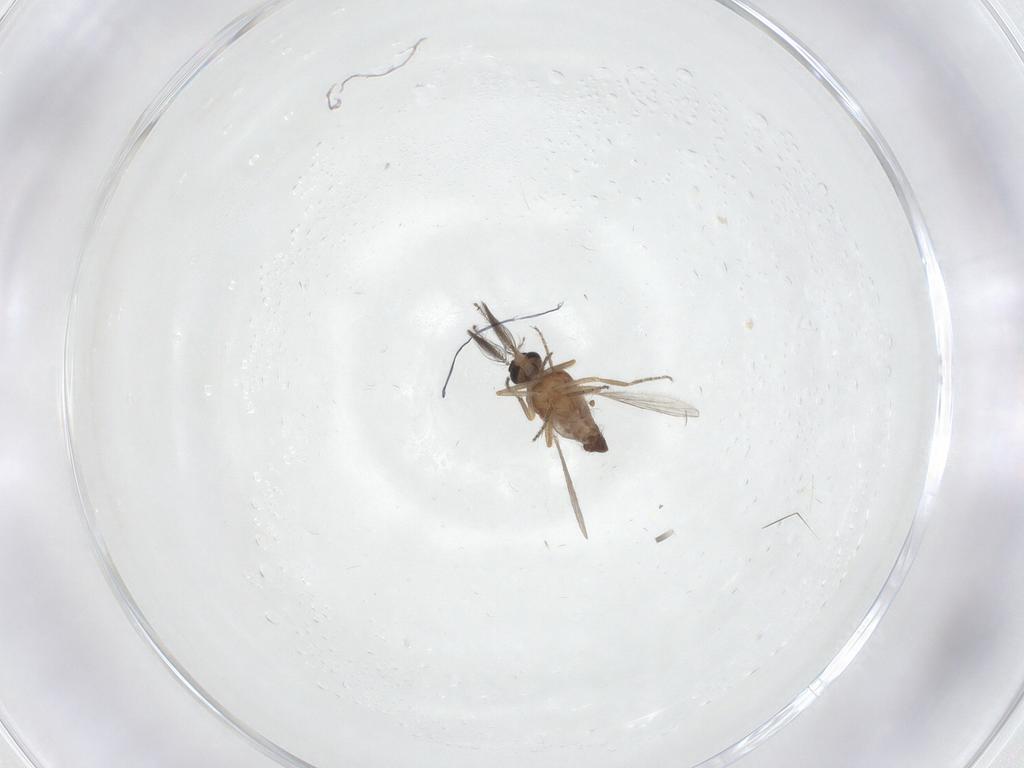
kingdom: Animalia
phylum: Arthropoda
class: Insecta
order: Diptera
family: Ceratopogonidae
